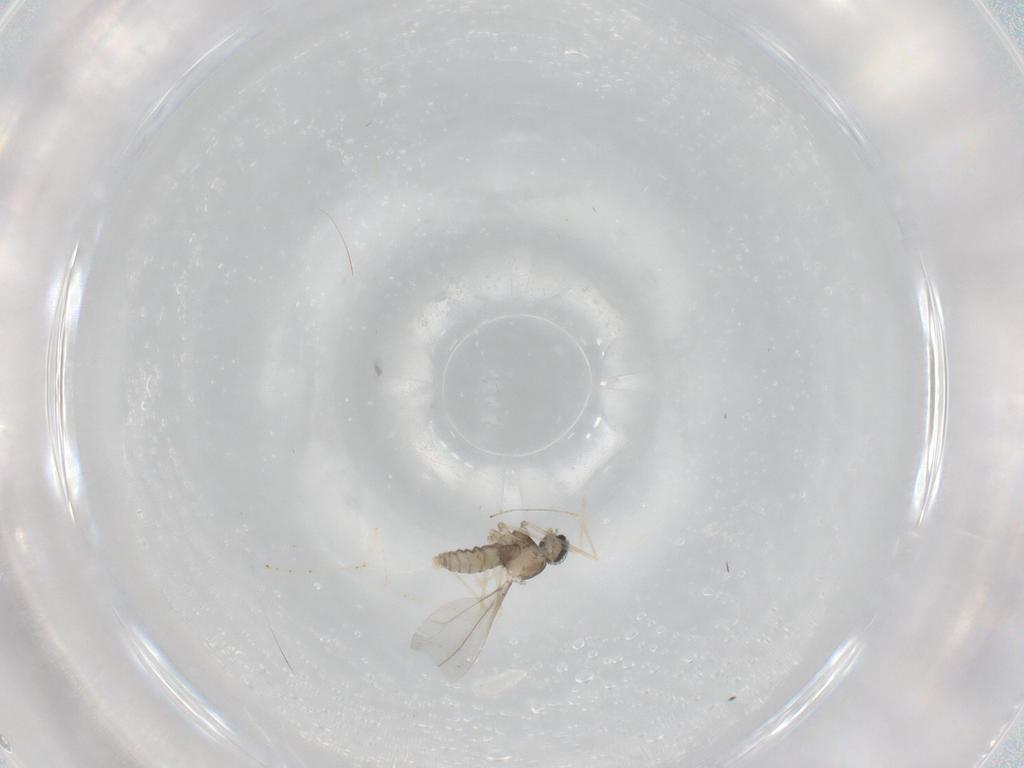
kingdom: Animalia
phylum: Arthropoda
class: Insecta
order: Diptera
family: Cecidomyiidae
